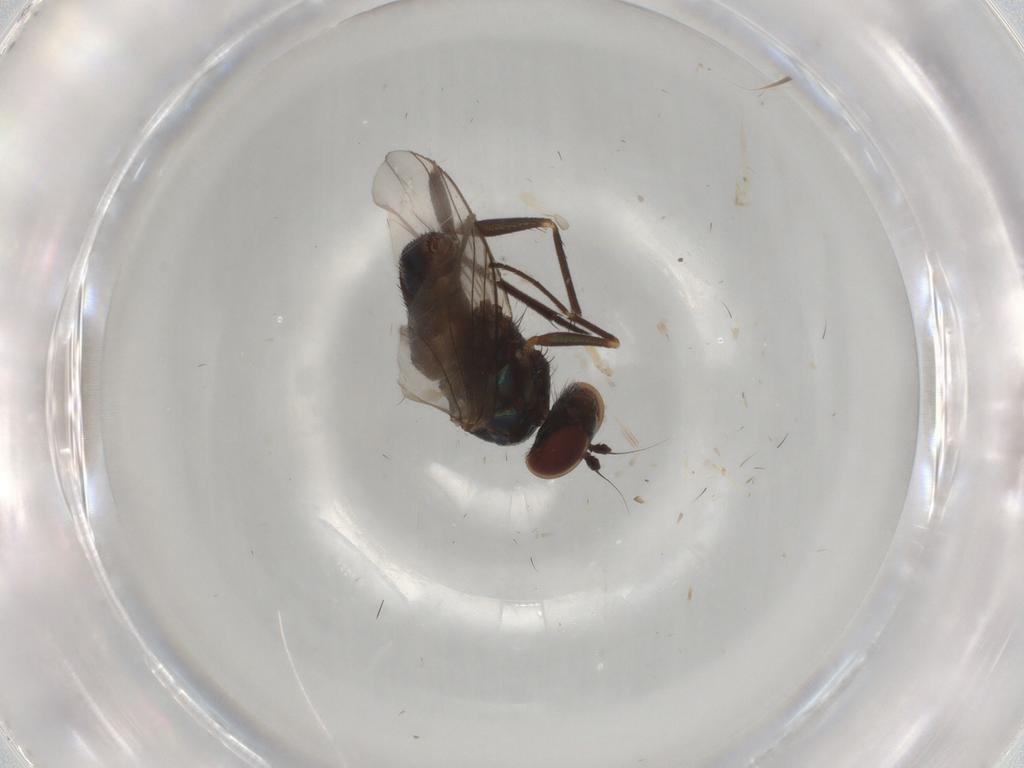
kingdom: Animalia
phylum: Arthropoda
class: Insecta
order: Diptera
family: Dolichopodidae
